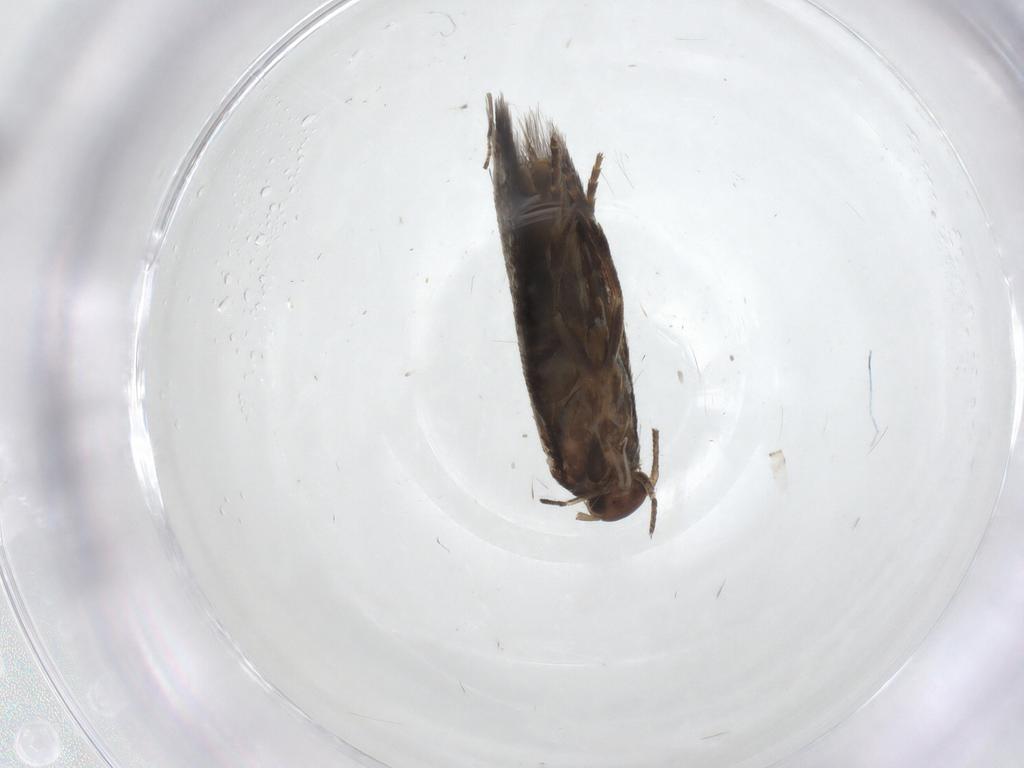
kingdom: Animalia
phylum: Arthropoda
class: Insecta
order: Lepidoptera
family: Elachistidae
